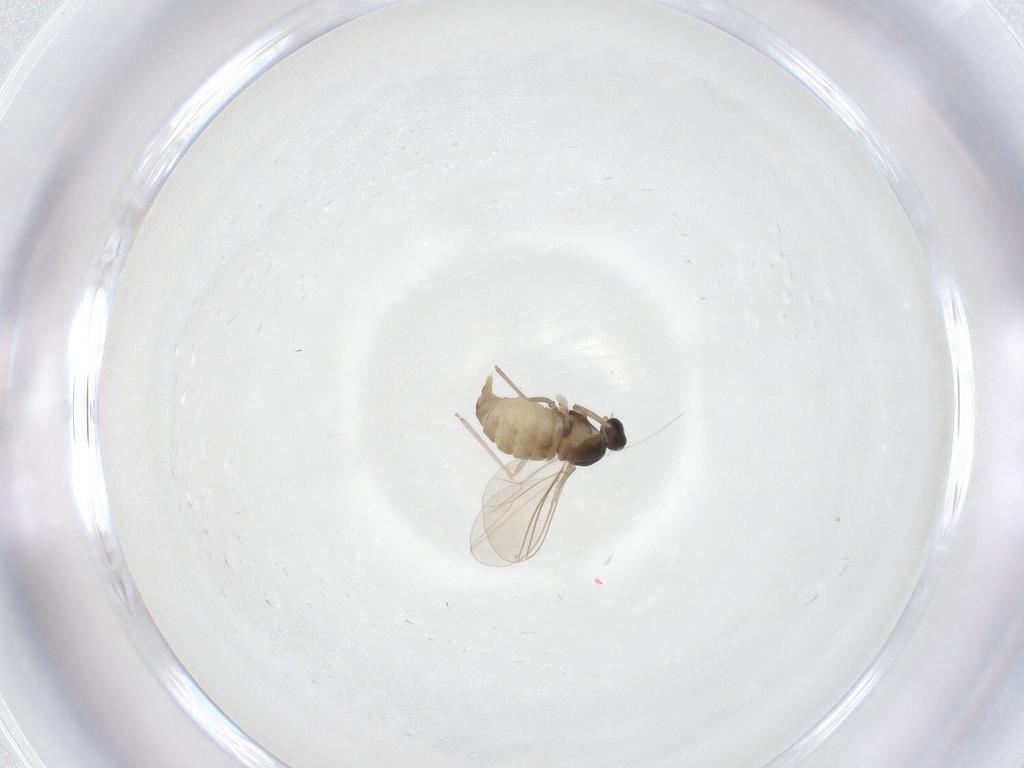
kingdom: Animalia
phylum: Arthropoda
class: Insecta
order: Diptera
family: Cecidomyiidae
